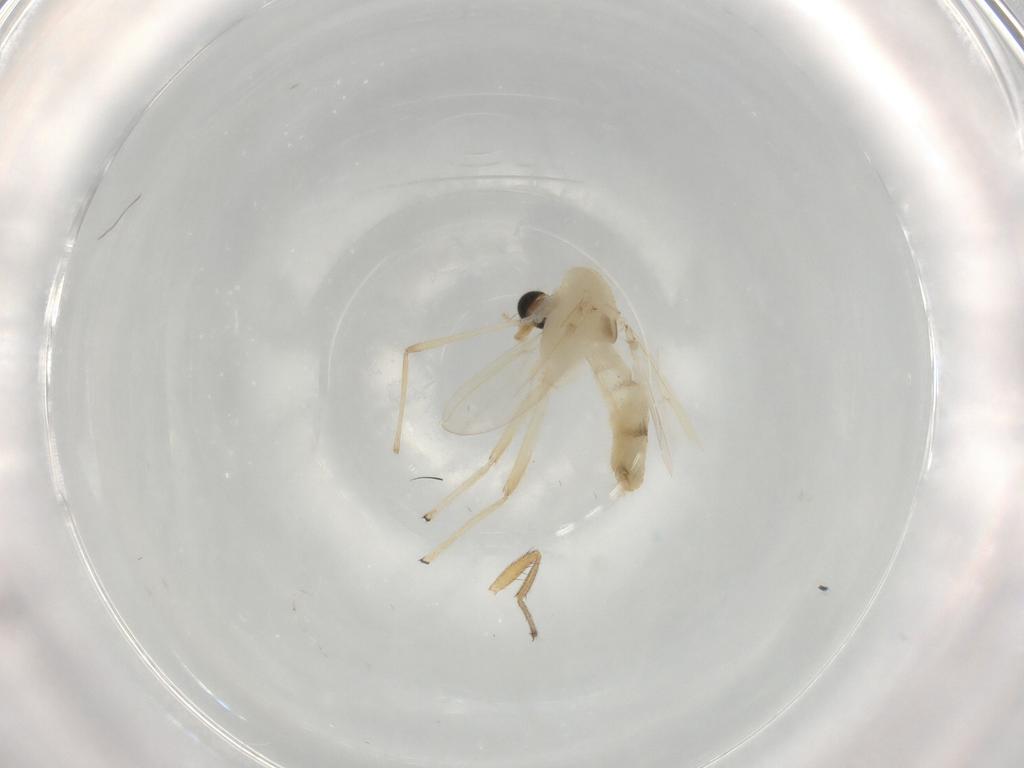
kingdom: Animalia
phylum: Arthropoda
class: Insecta
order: Diptera
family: Chironomidae
